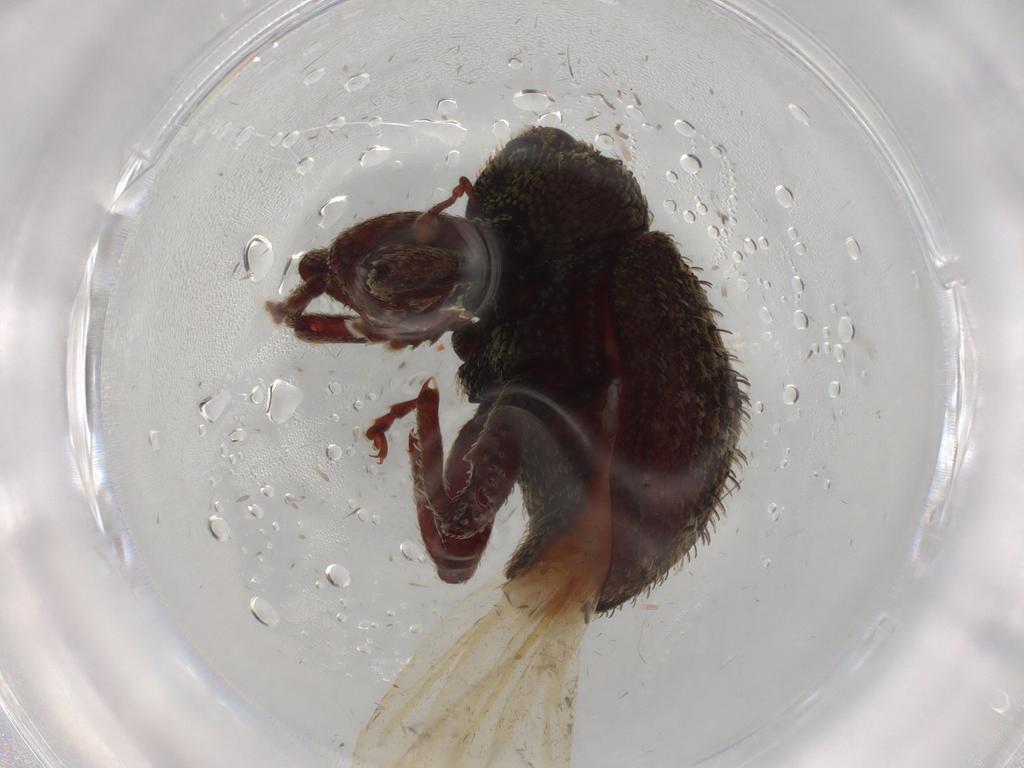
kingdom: Animalia
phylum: Arthropoda
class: Insecta
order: Coleoptera
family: Curculionidae
